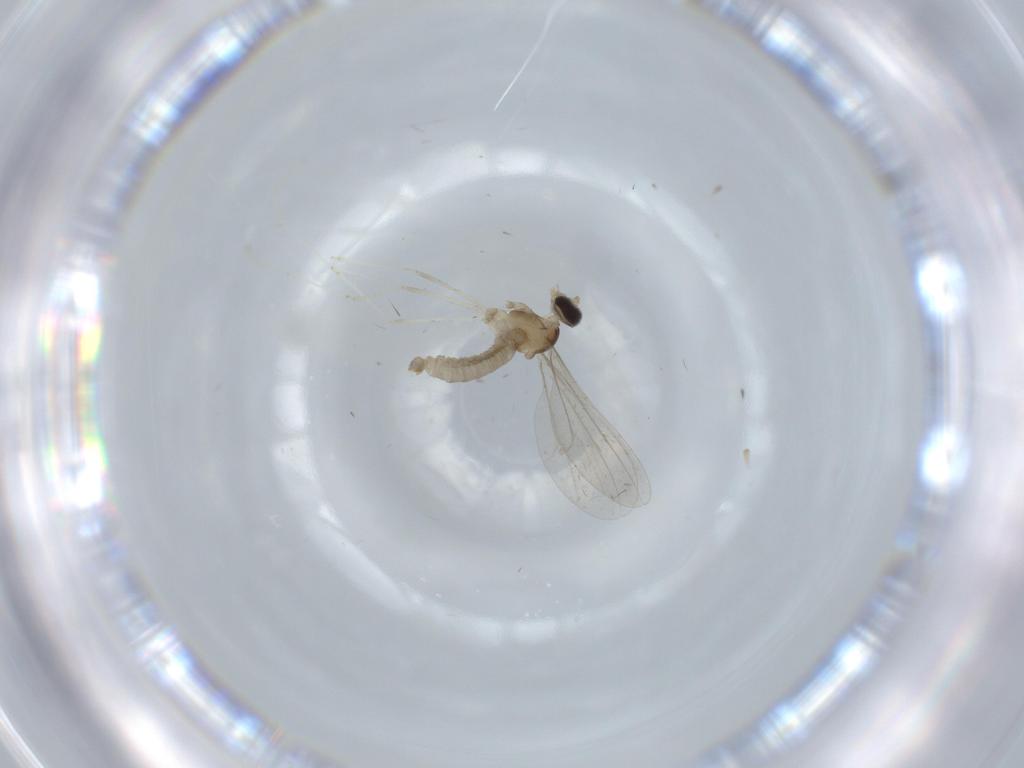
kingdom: Animalia
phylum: Arthropoda
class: Insecta
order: Diptera
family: Cecidomyiidae
